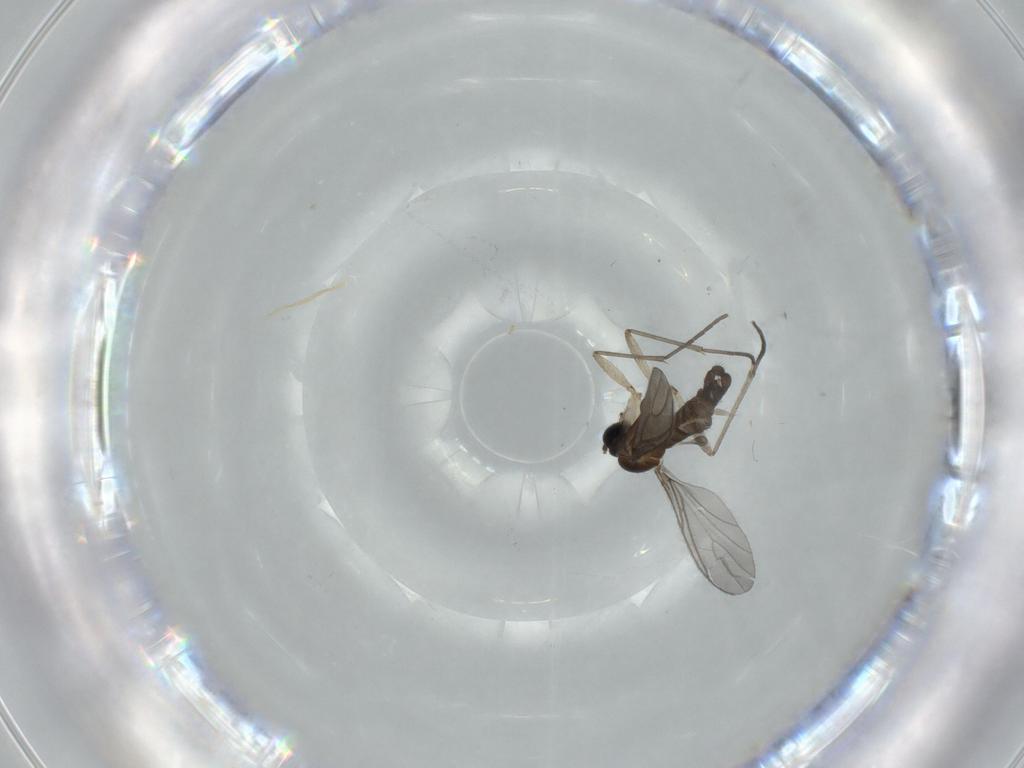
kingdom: Animalia
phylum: Arthropoda
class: Insecta
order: Diptera
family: Sciaridae
